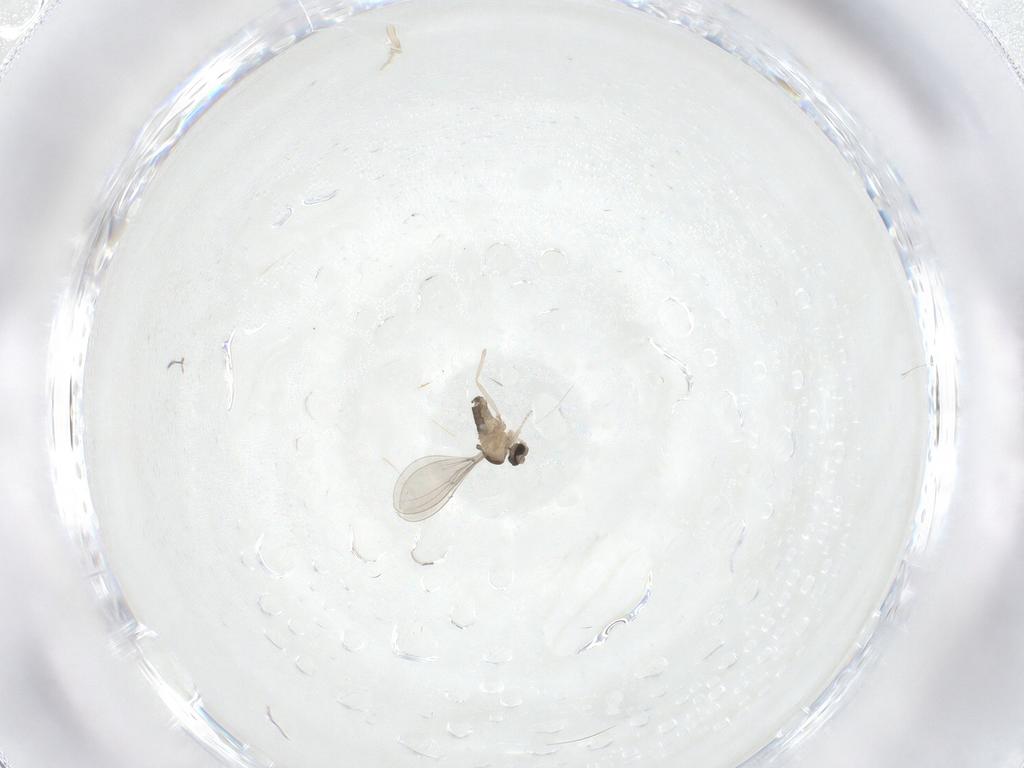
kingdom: Animalia
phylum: Arthropoda
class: Insecta
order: Diptera
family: Cecidomyiidae
